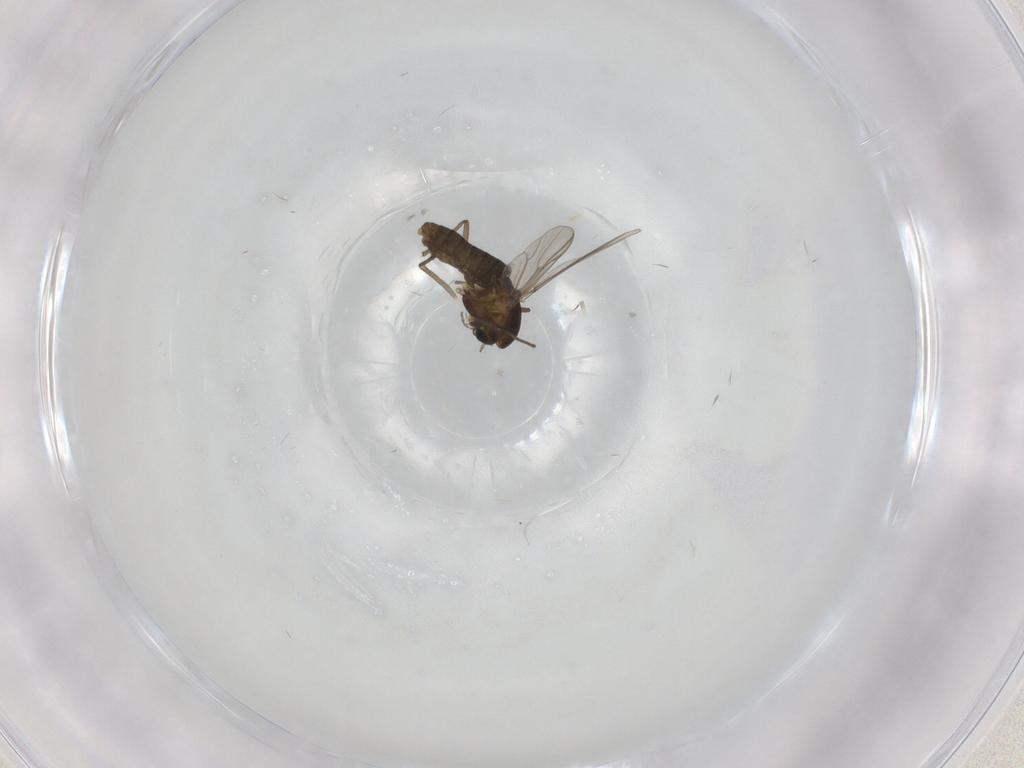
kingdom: Animalia
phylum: Arthropoda
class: Insecta
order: Diptera
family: Chironomidae
